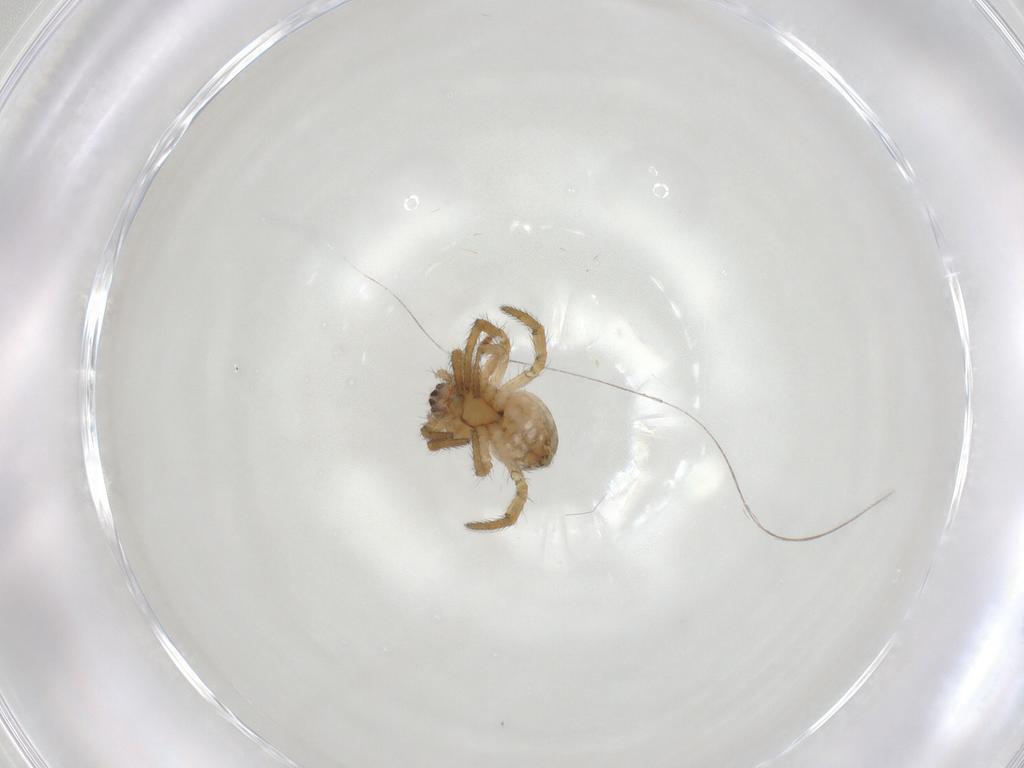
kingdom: Animalia
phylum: Arthropoda
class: Arachnida
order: Araneae
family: Araneidae
